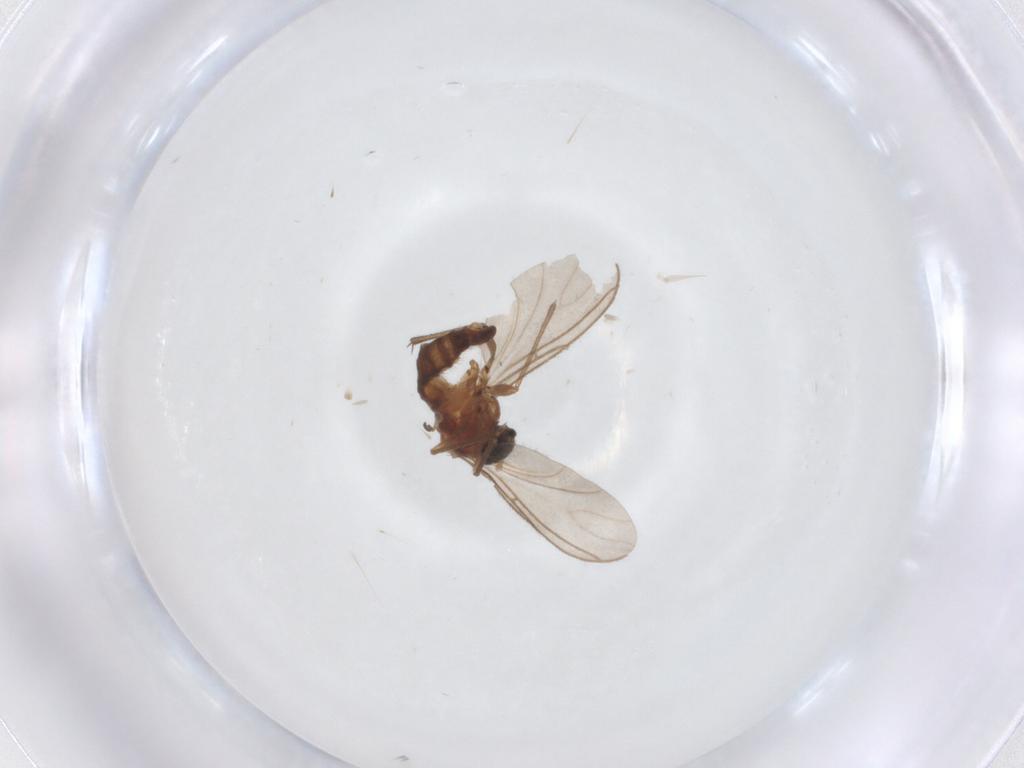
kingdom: Animalia
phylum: Arthropoda
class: Insecta
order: Diptera
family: Sciaridae
